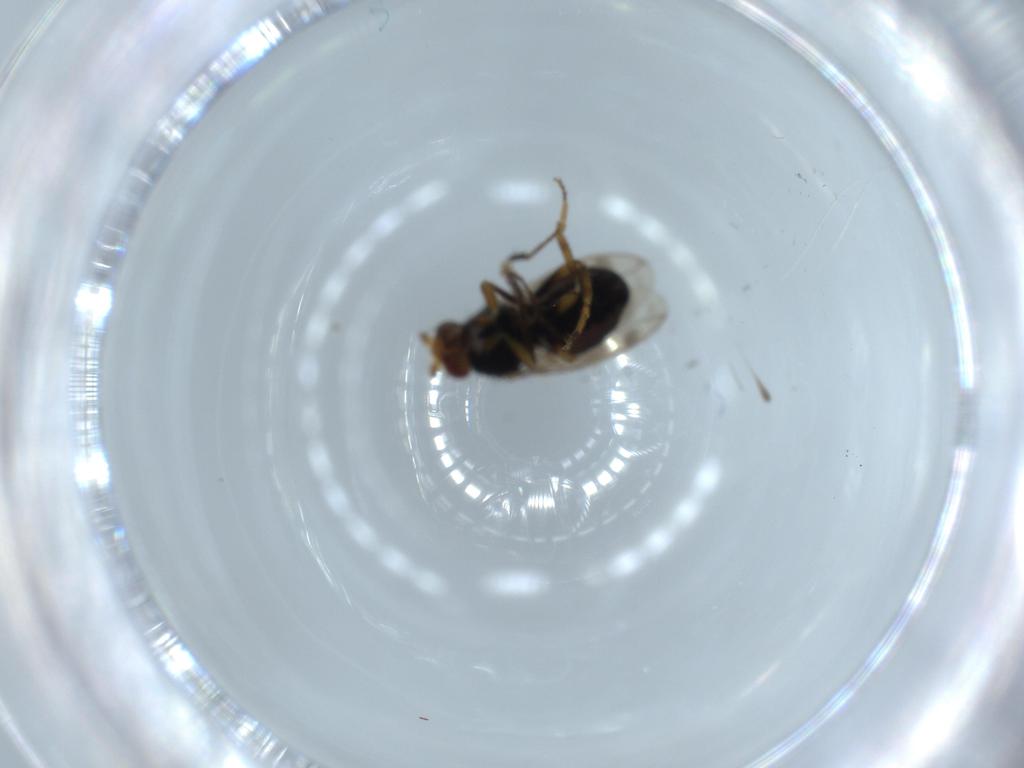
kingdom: Animalia
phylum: Arthropoda
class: Insecta
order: Diptera
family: Sphaeroceridae
